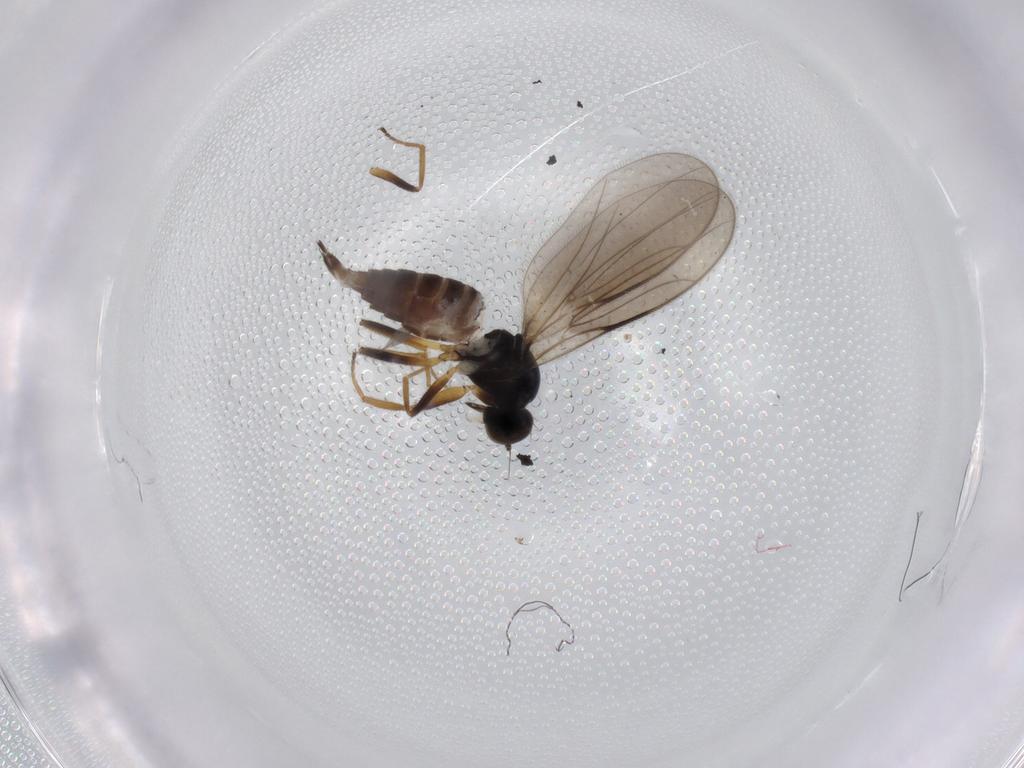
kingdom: Animalia
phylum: Arthropoda
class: Insecta
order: Diptera
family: Hybotidae
